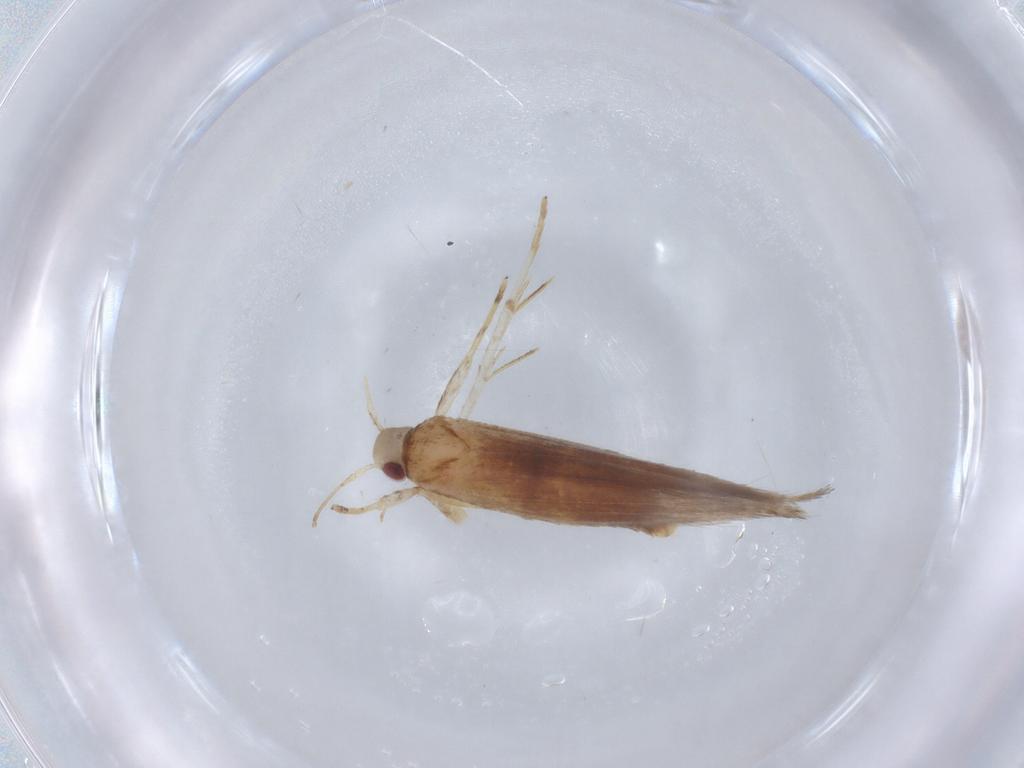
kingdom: Animalia
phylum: Arthropoda
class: Insecta
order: Lepidoptera
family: Cosmopterigidae
